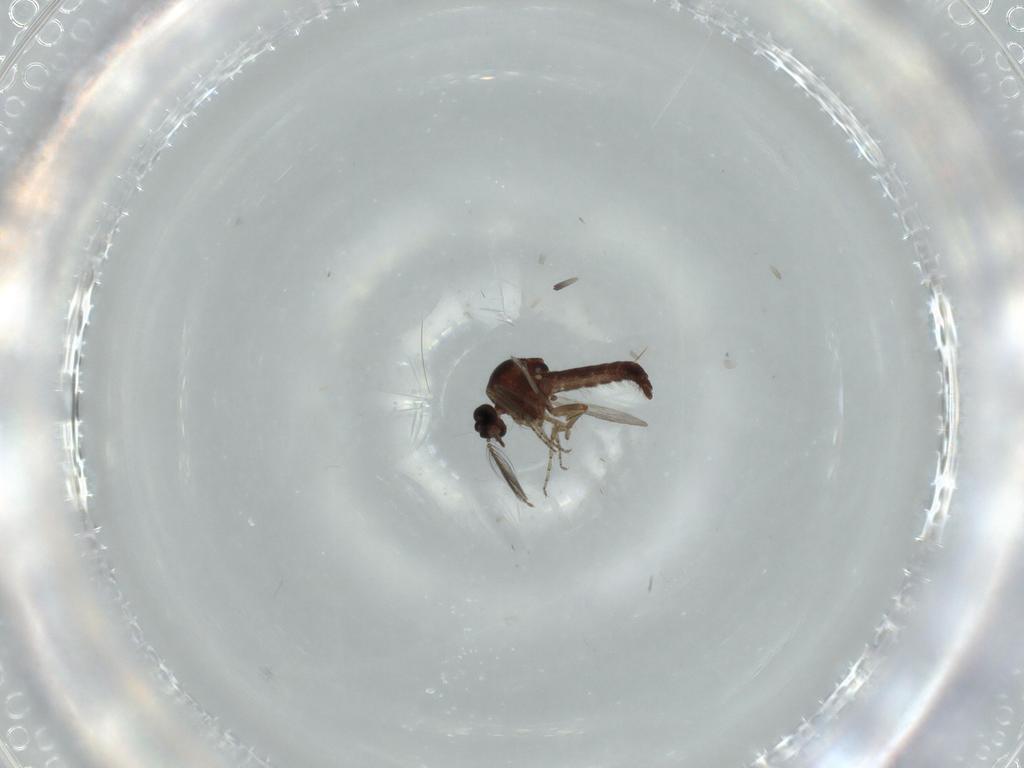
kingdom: Animalia
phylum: Arthropoda
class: Insecta
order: Diptera
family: Ceratopogonidae
